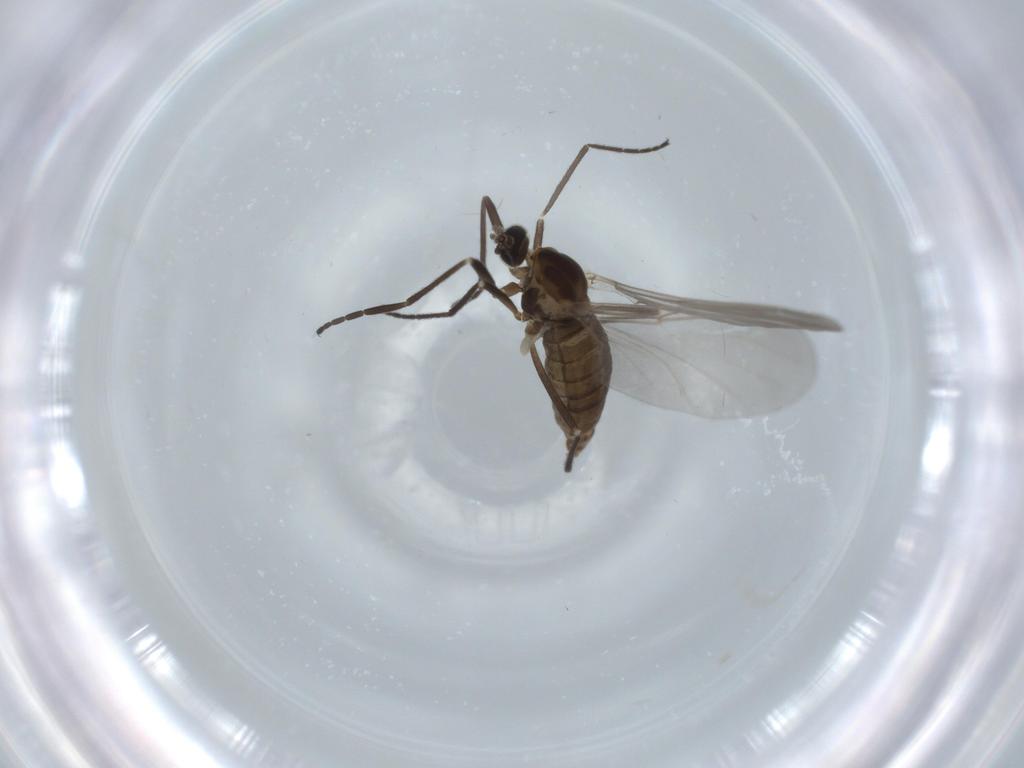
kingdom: Animalia
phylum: Arthropoda
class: Insecta
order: Diptera
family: Cecidomyiidae
